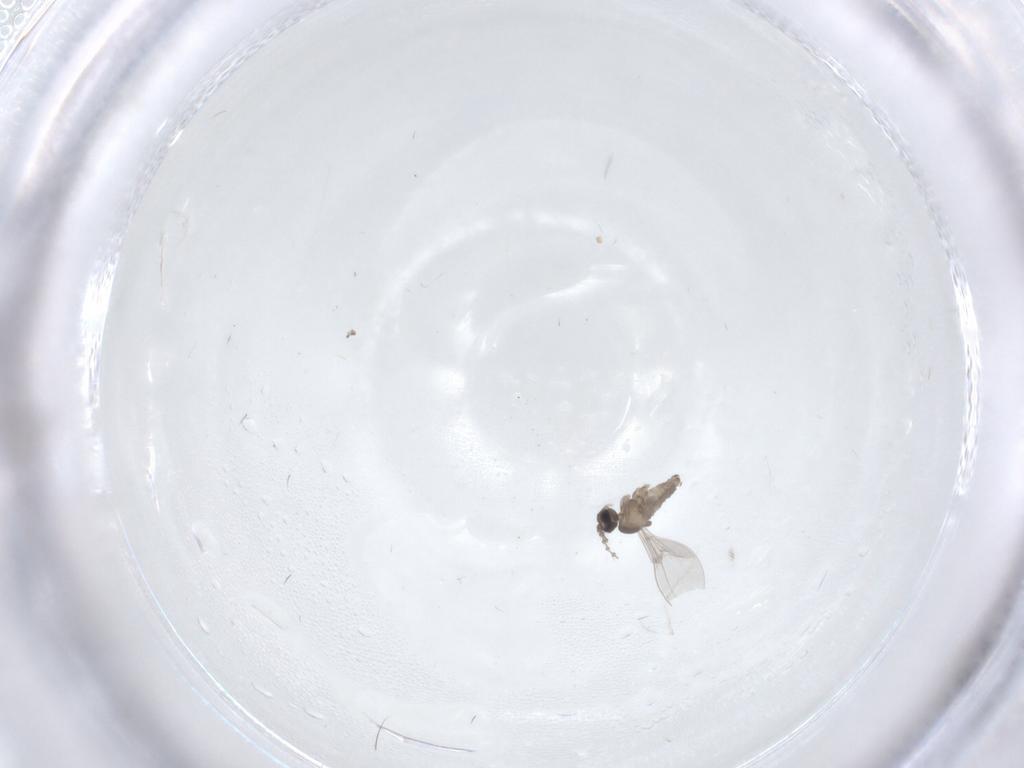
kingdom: Animalia
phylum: Arthropoda
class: Insecta
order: Diptera
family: Chironomidae
